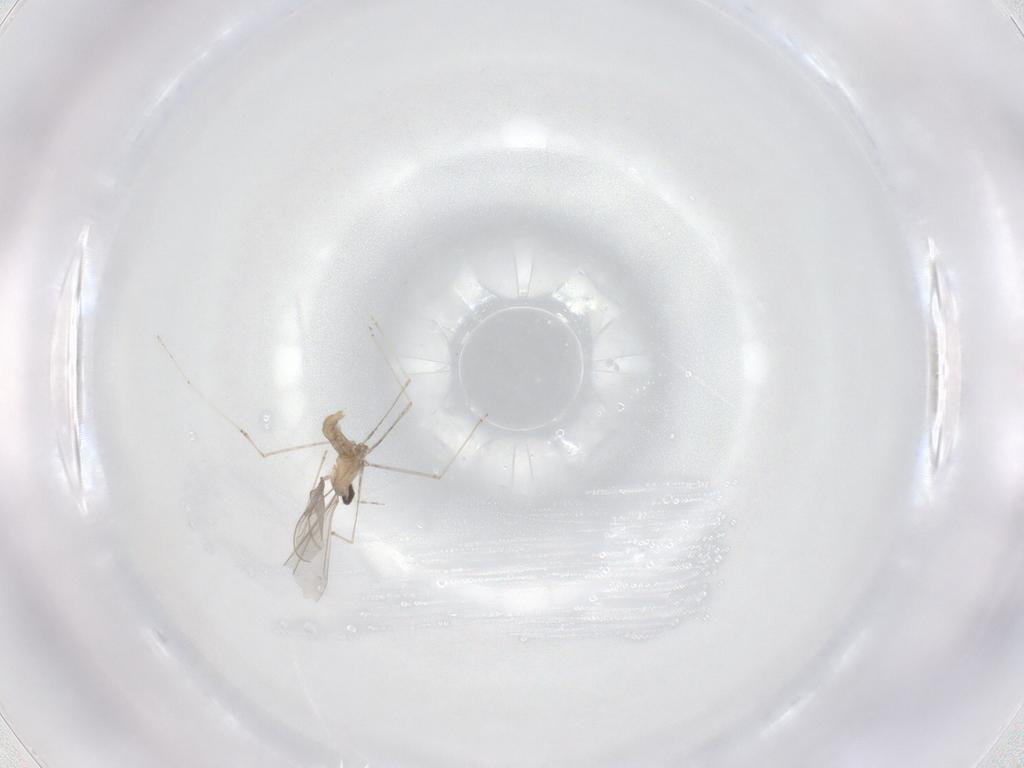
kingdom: Animalia
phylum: Arthropoda
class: Insecta
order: Diptera
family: Cecidomyiidae
